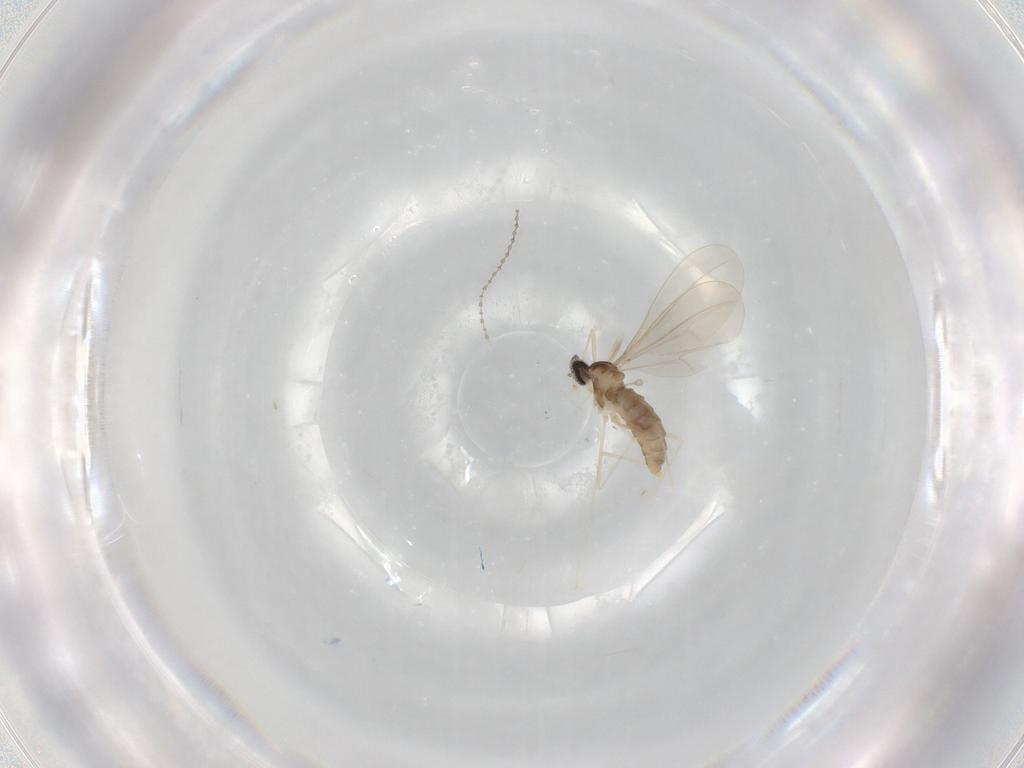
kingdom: Animalia
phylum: Arthropoda
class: Insecta
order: Diptera
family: Cecidomyiidae
